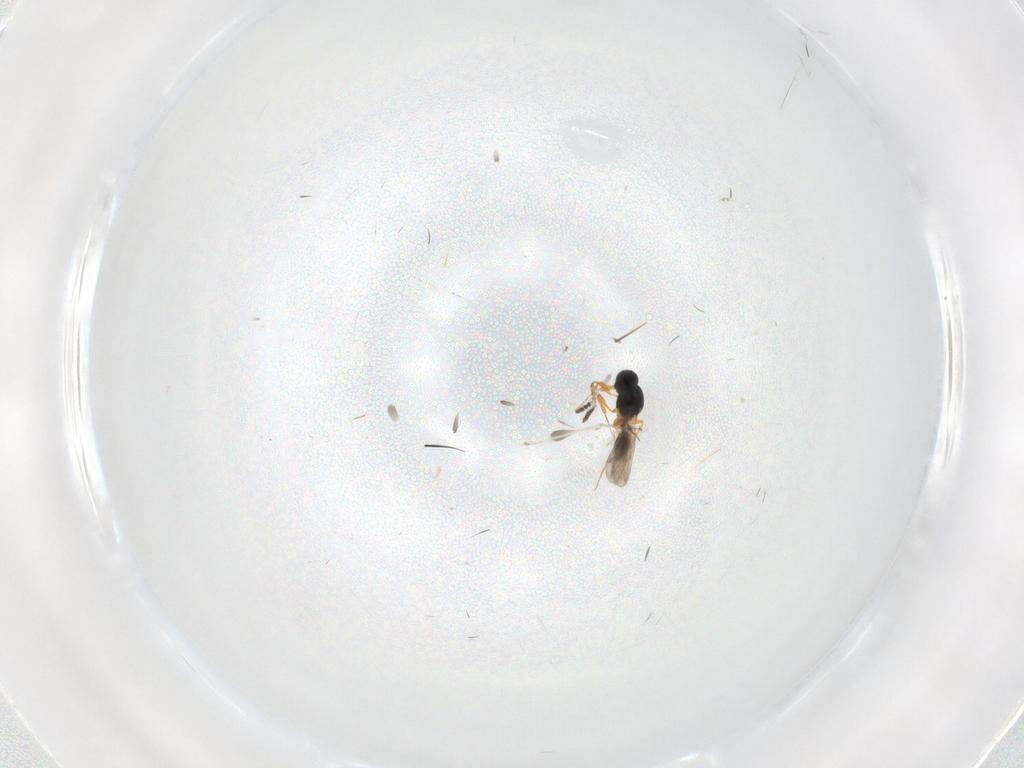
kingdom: Animalia
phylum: Arthropoda
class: Insecta
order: Hymenoptera
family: Platygastridae
